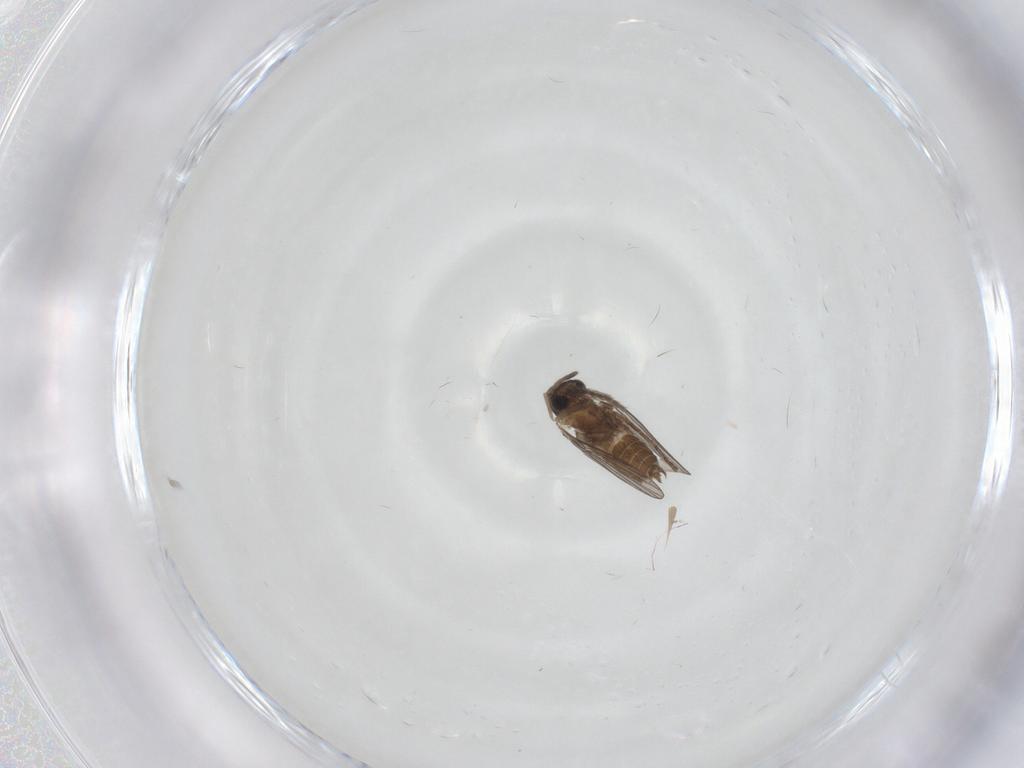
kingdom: Animalia
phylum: Arthropoda
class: Insecta
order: Diptera
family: Limoniidae
